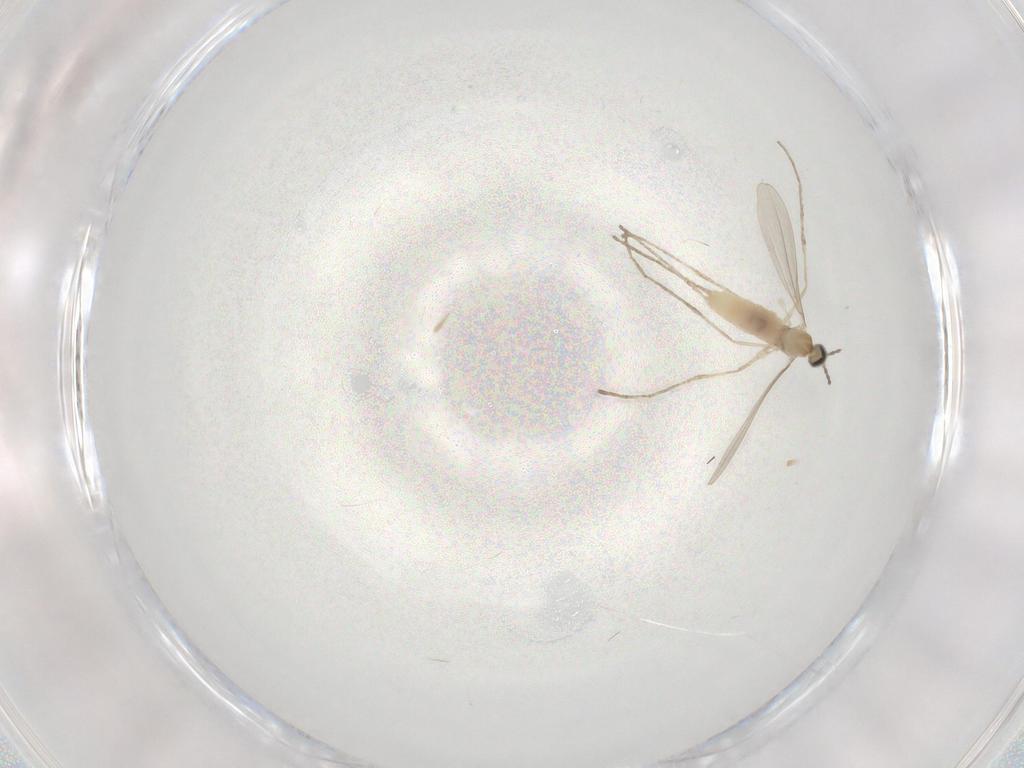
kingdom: Animalia
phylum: Arthropoda
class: Insecta
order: Diptera
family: Cecidomyiidae
